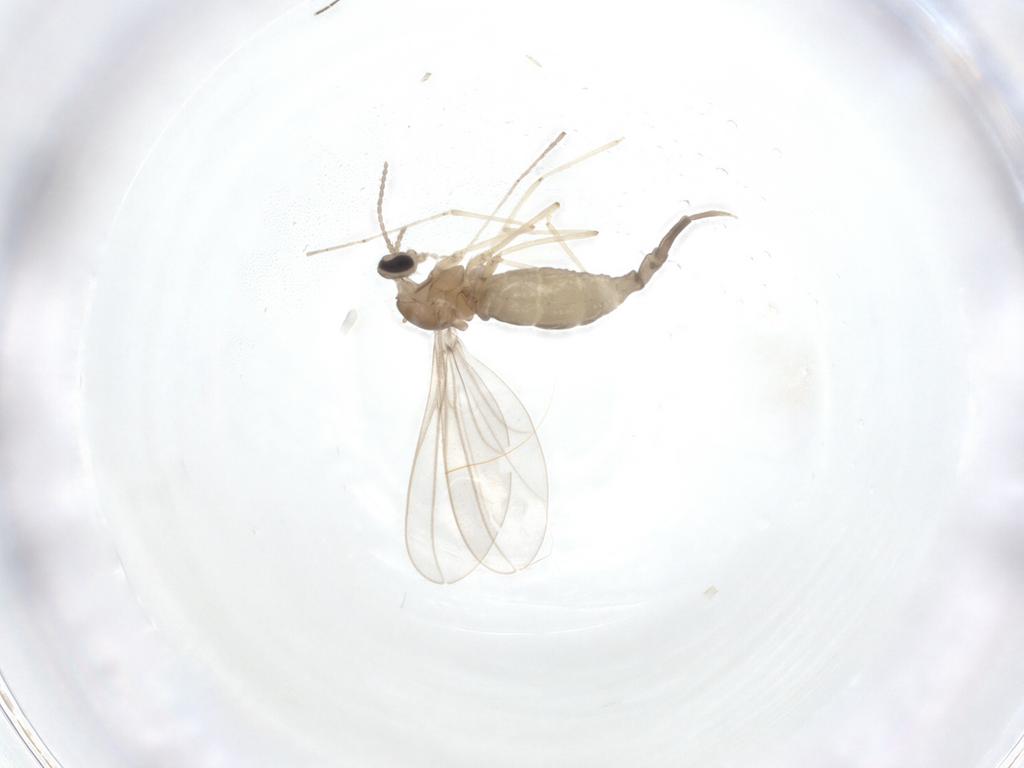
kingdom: Animalia
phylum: Arthropoda
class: Insecta
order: Diptera
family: Sciaridae
